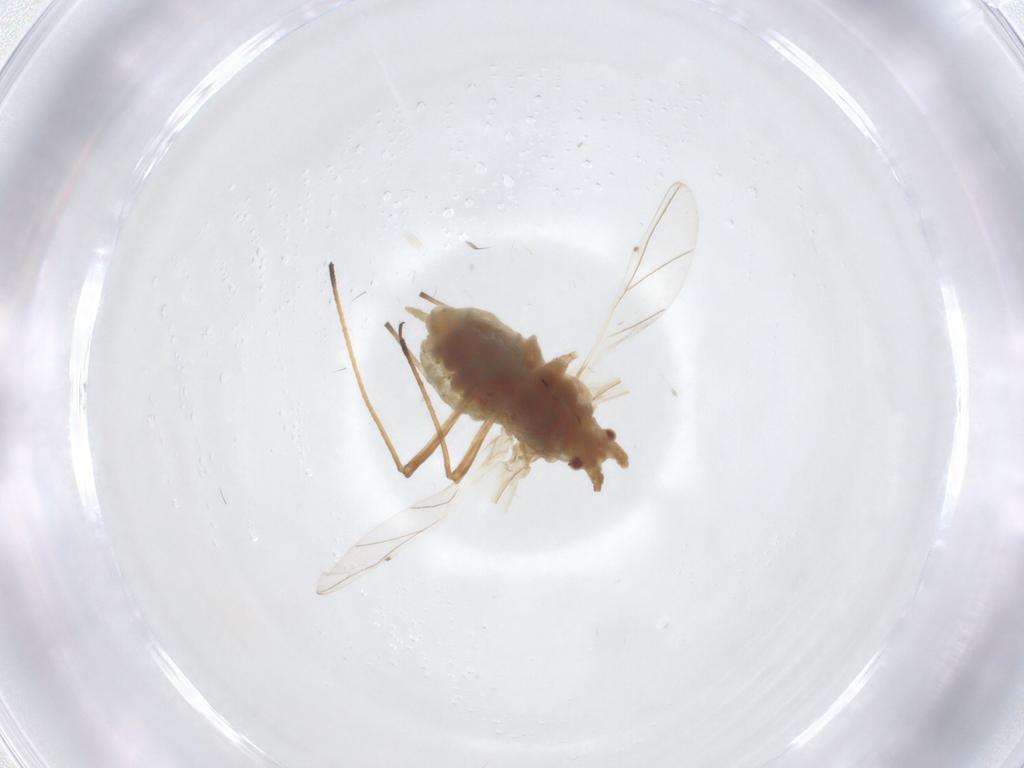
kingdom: Animalia
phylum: Arthropoda
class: Insecta
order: Hemiptera
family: Aphididae
